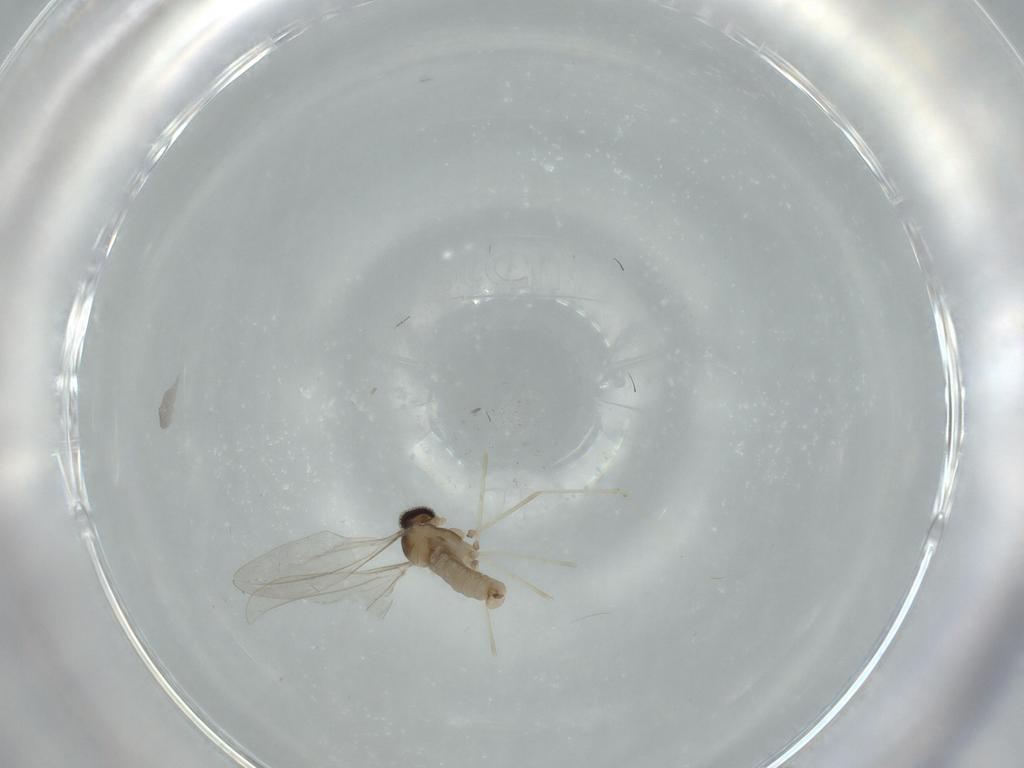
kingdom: Animalia
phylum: Arthropoda
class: Insecta
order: Diptera
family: Cecidomyiidae
